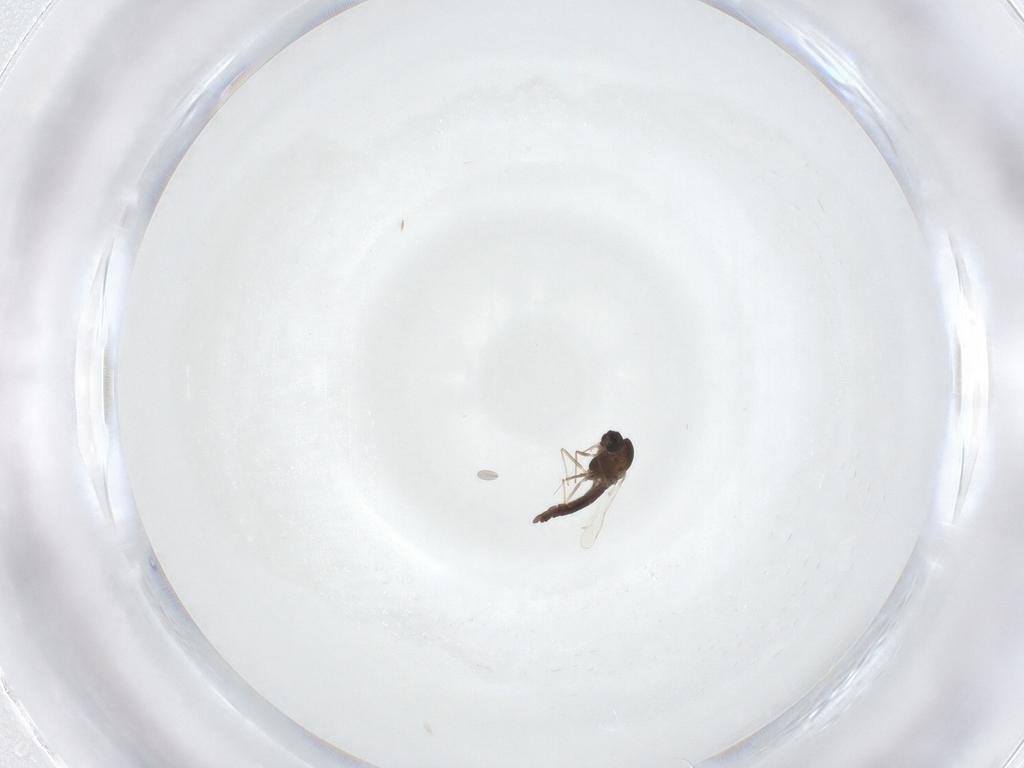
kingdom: Animalia
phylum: Arthropoda
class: Insecta
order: Diptera
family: Chironomidae
